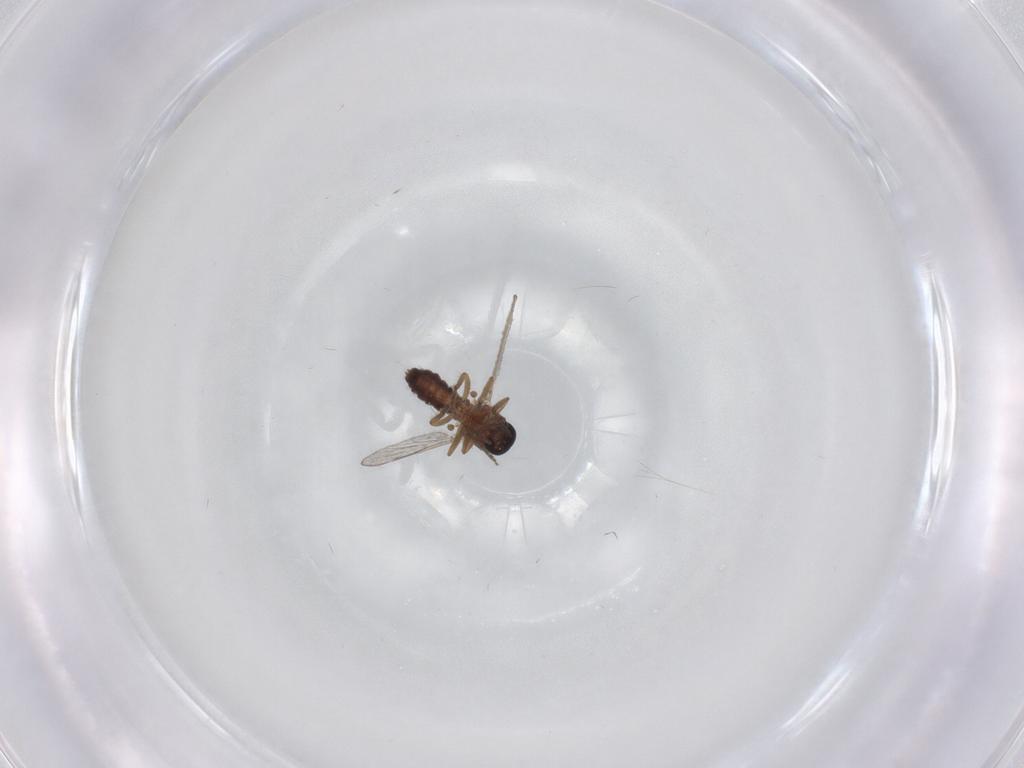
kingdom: Animalia
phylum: Arthropoda
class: Insecta
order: Diptera
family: Ceratopogonidae
